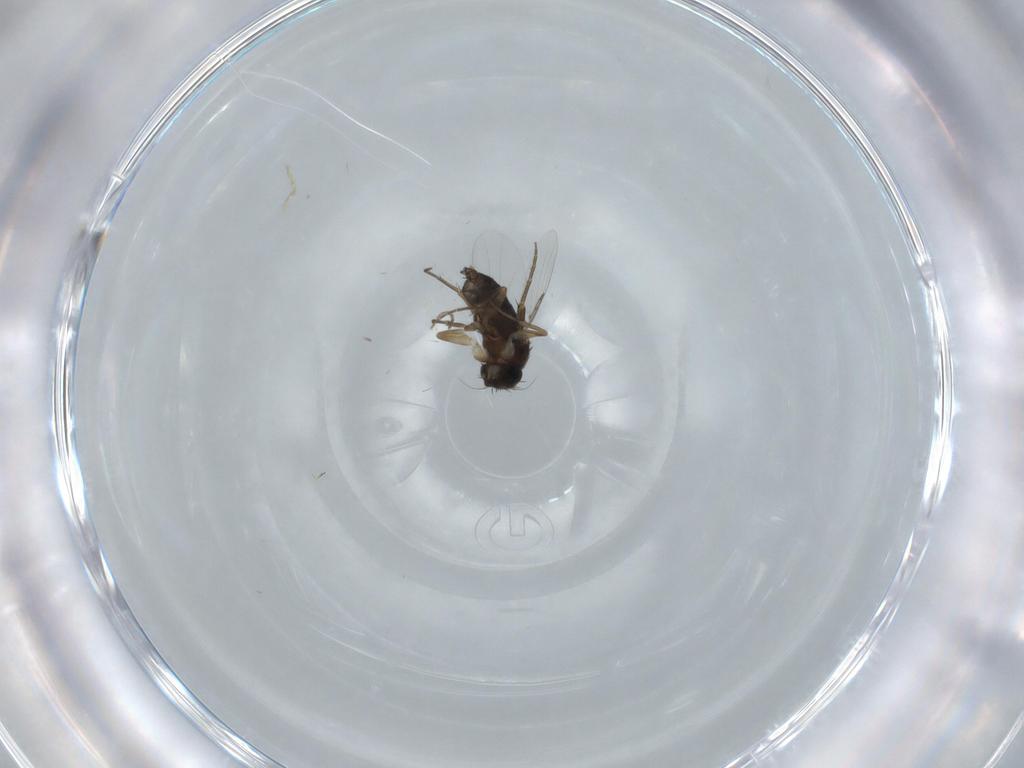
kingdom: Animalia
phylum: Arthropoda
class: Insecta
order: Diptera
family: Phoridae
